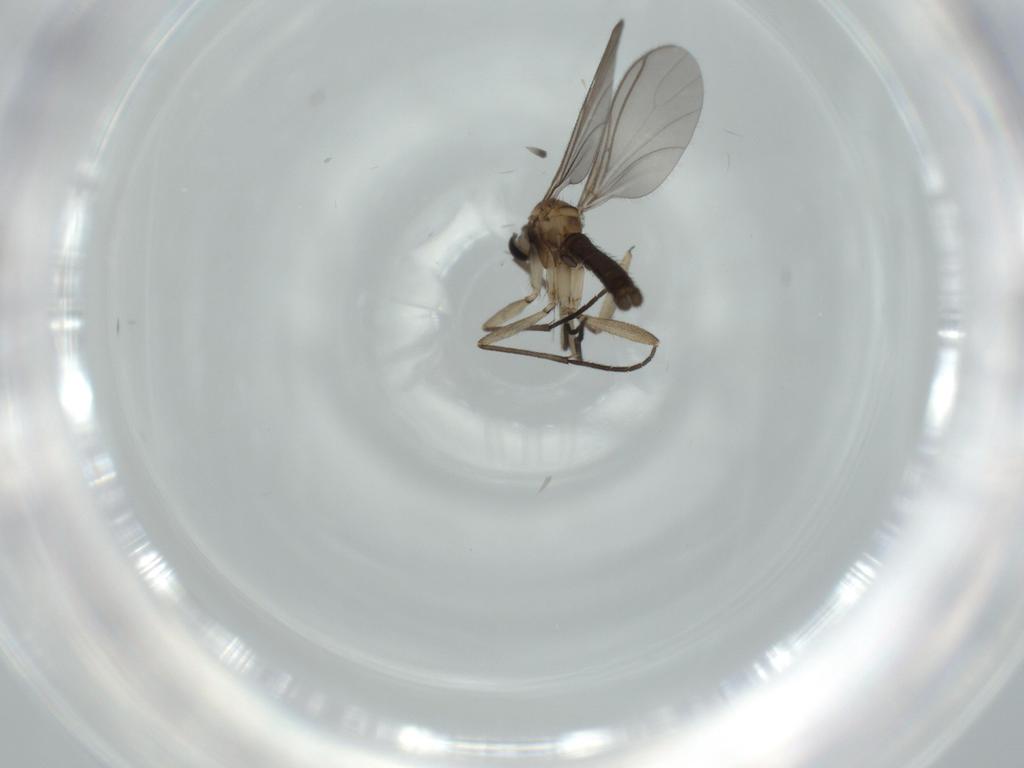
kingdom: Animalia
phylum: Arthropoda
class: Insecta
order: Diptera
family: Sciaridae
